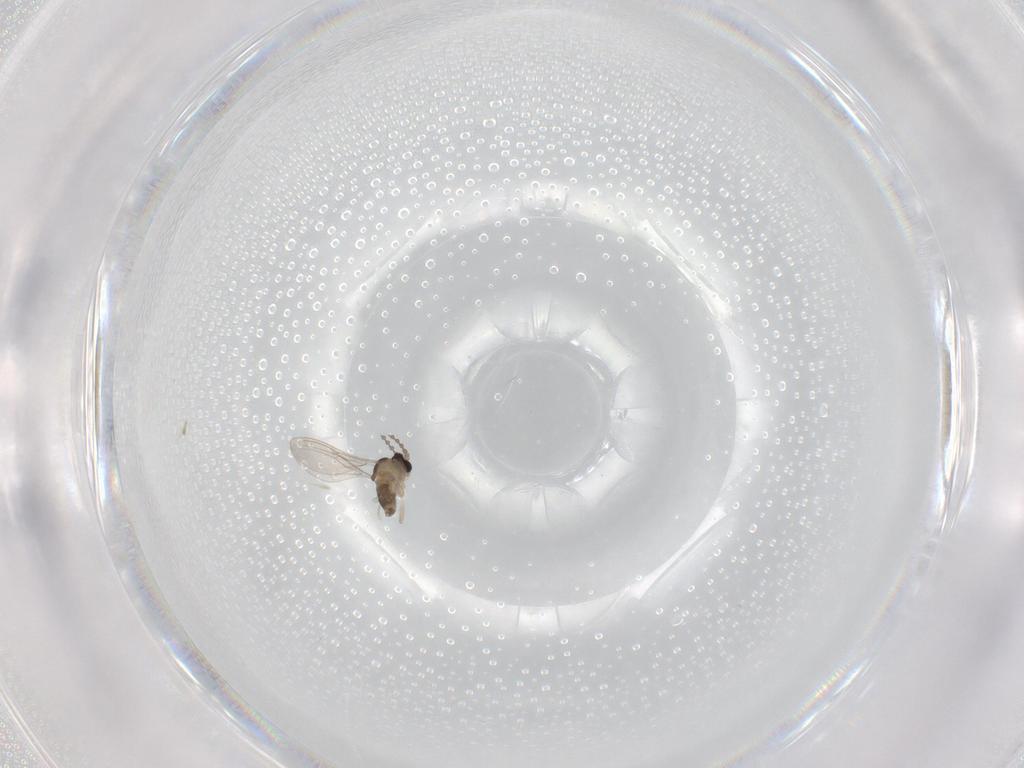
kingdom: Animalia
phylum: Arthropoda
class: Insecta
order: Diptera
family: Cecidomyiidae
